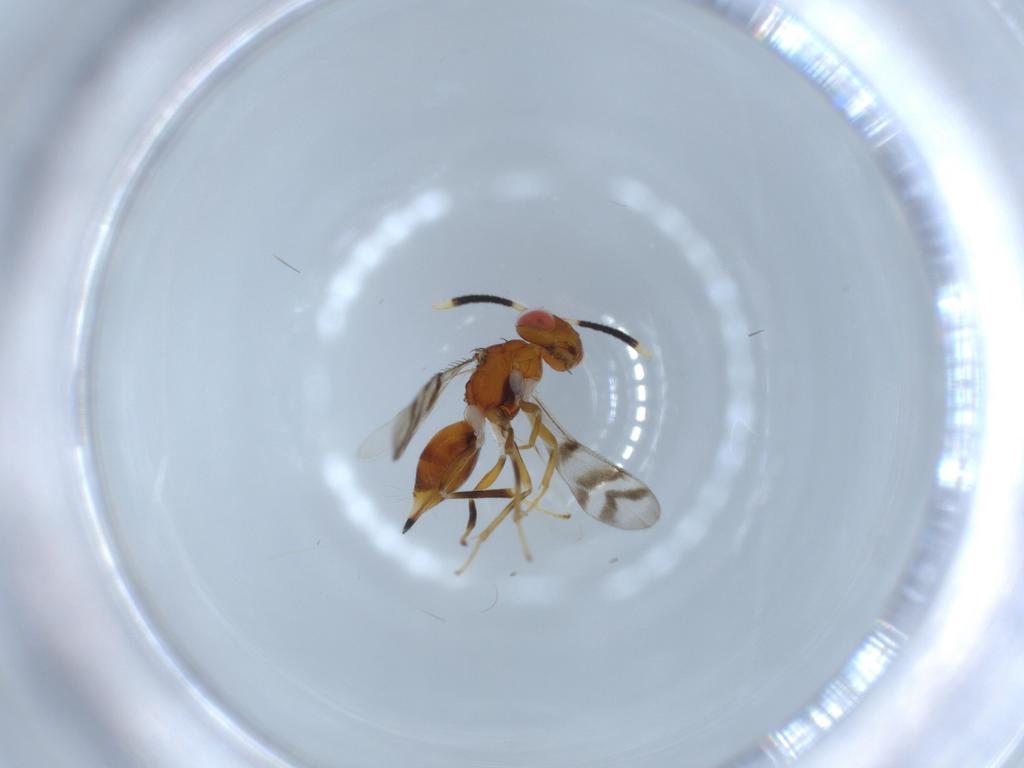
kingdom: Animalia
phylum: Arthropoda
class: Insecta
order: Hymenoptera
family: Diparidae
